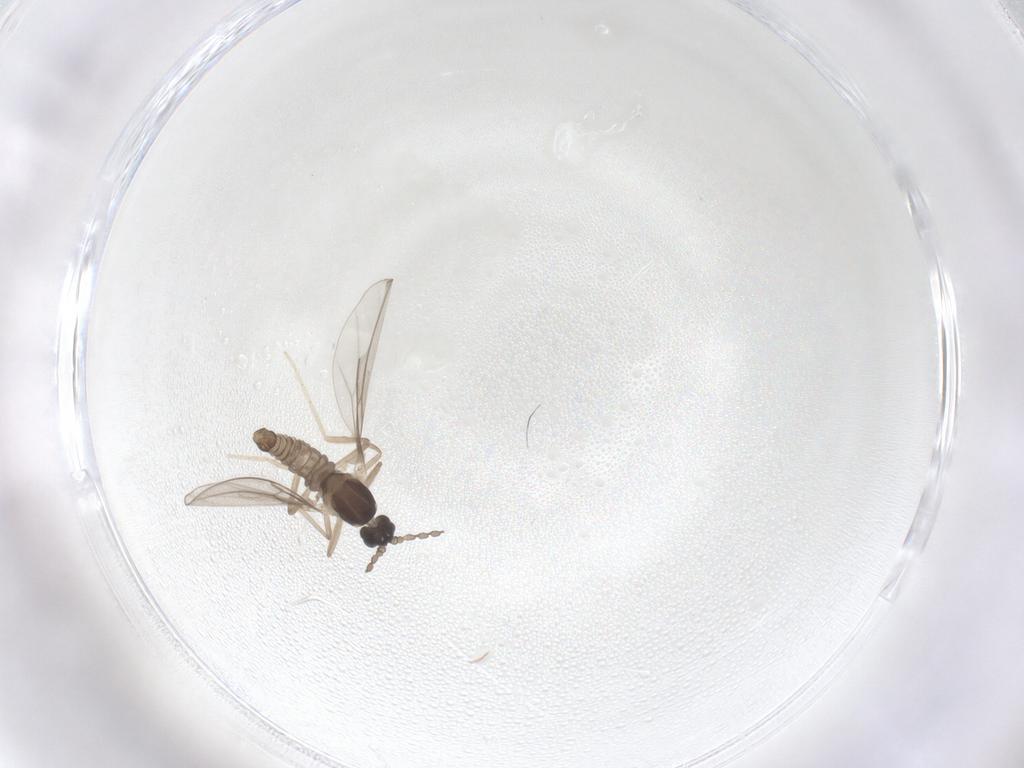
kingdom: Animalia
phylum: Arthropoda
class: Insecta
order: Diptera
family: Cecidomyiidae
